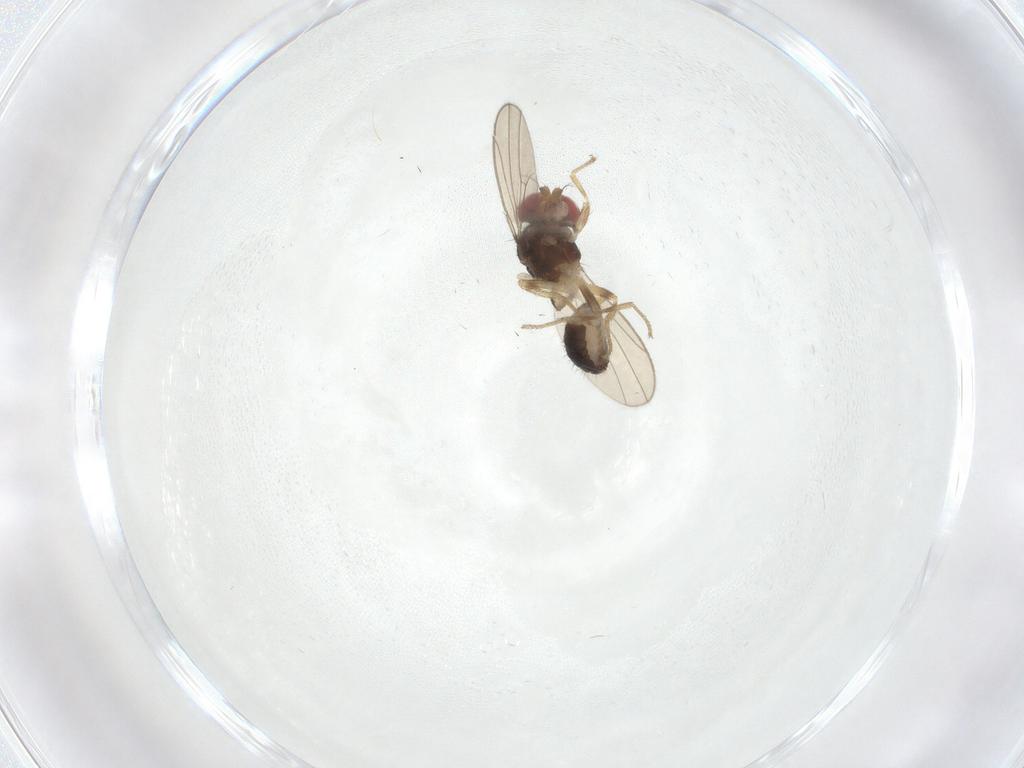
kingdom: Animalia
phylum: Arthropoda
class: Insecta
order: Diptera
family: Drosophilidae
